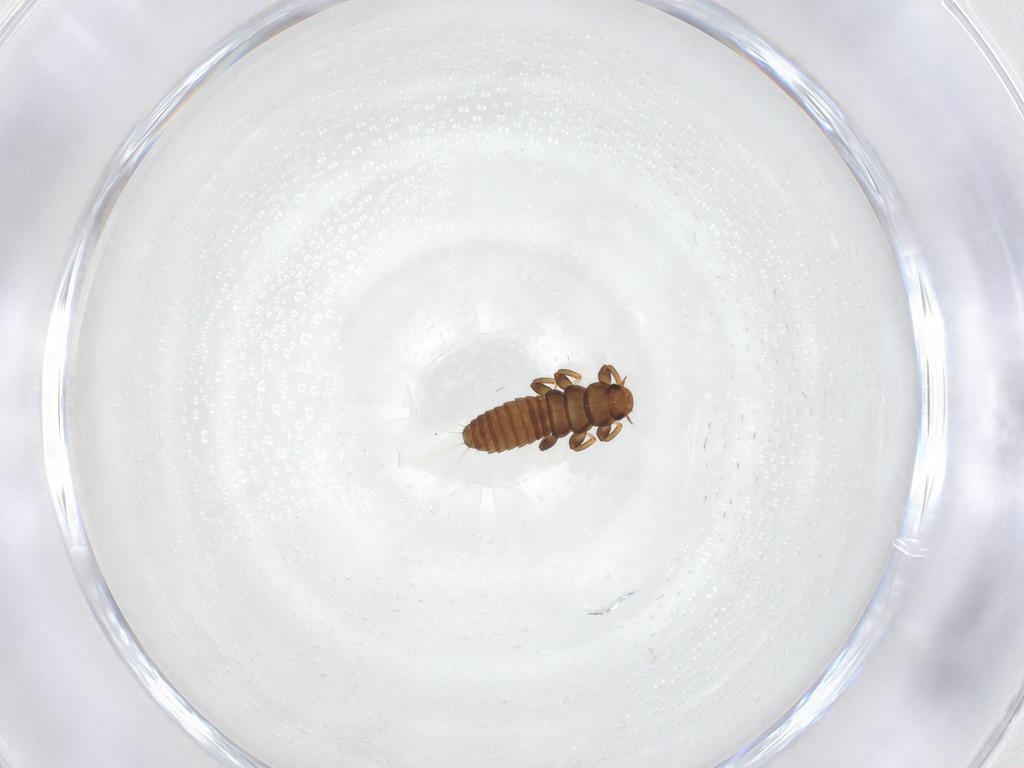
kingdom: Animalia
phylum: Arthropoda
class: Insecta
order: Coleoptera
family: Meloidae
